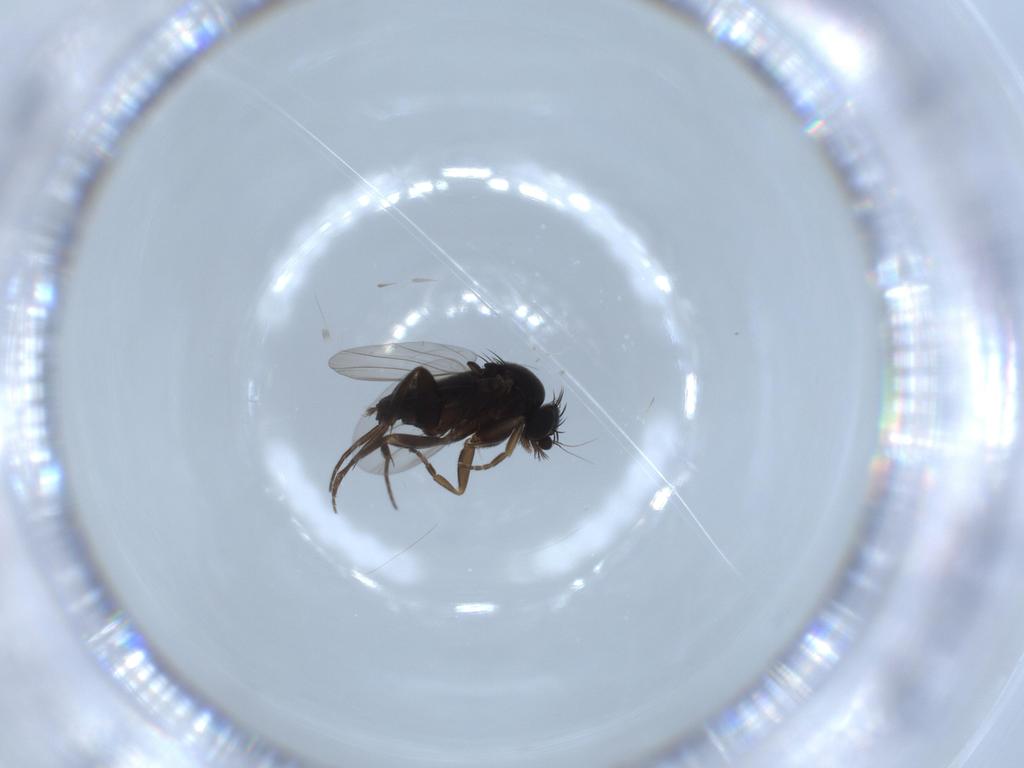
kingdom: Animalia
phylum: Arthropoda
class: Insecta
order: Diptera
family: Phoridae
